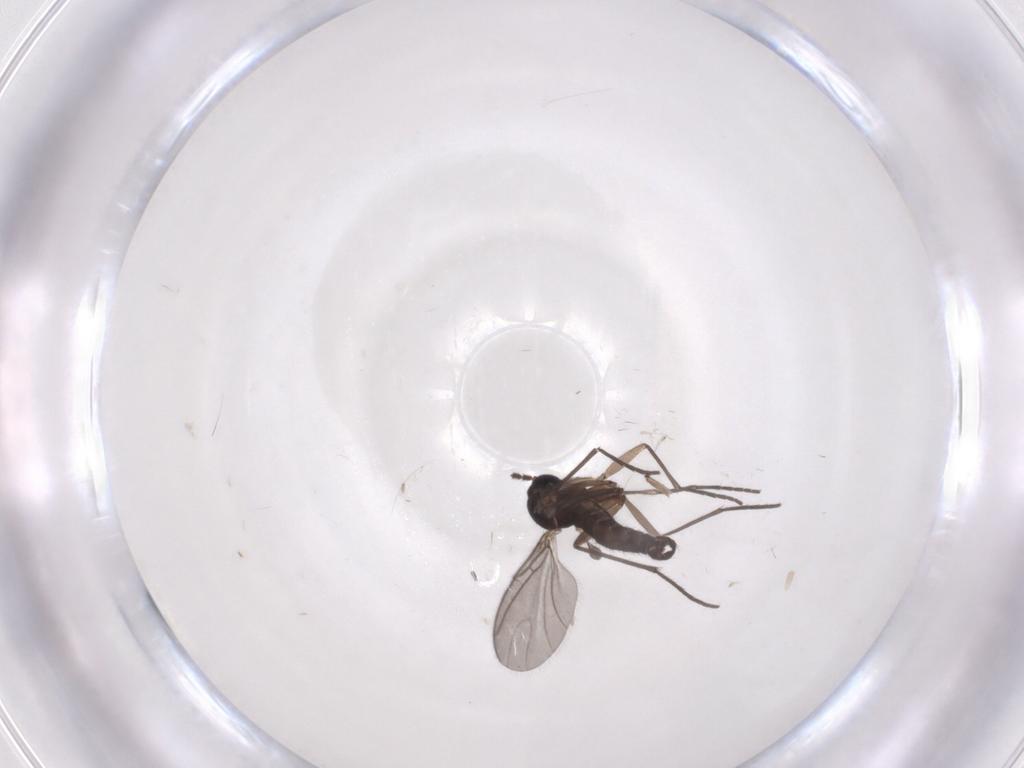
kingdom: Animalia
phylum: Arthropoda
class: Insecta
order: Diptera
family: Sciaridae
